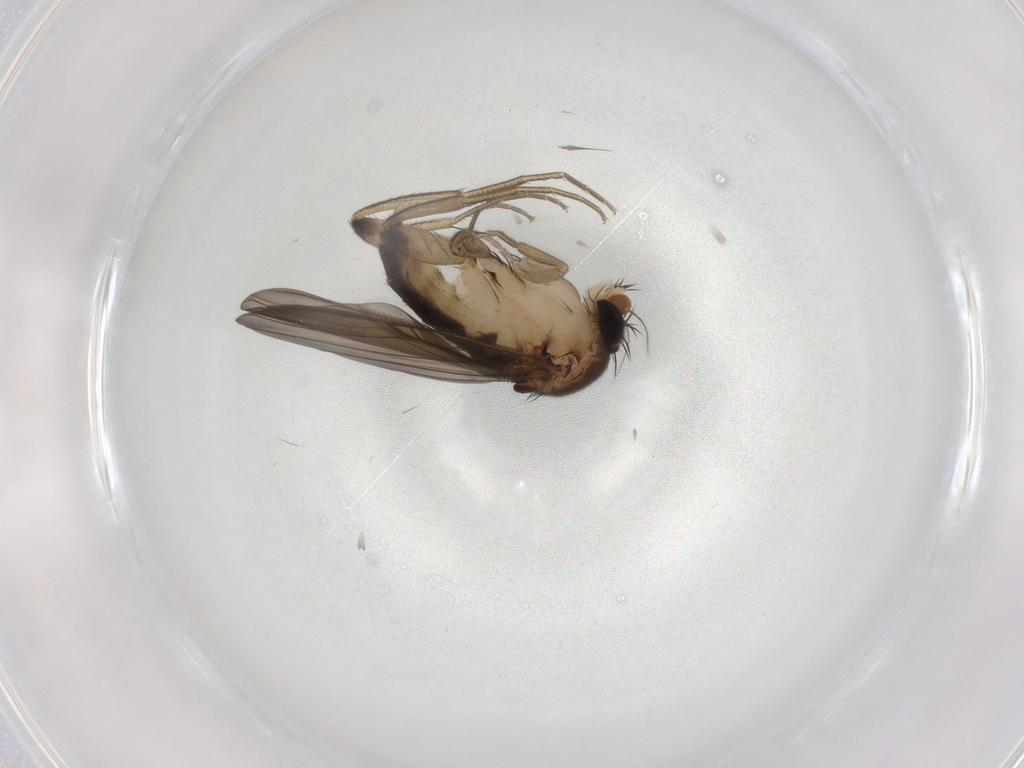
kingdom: Animalia
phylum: Arthropoda
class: Insecta
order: Diptera
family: Phoridae
